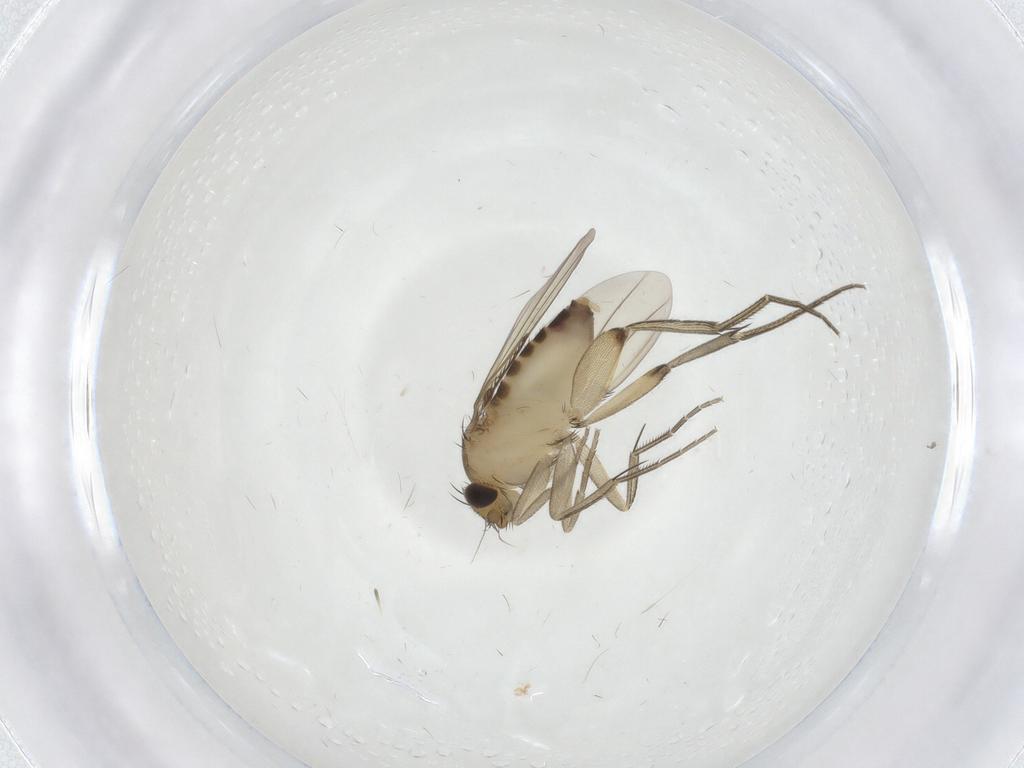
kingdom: Animalia
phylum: Arthropoda
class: Insecta
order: Diptera
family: Phoridae
